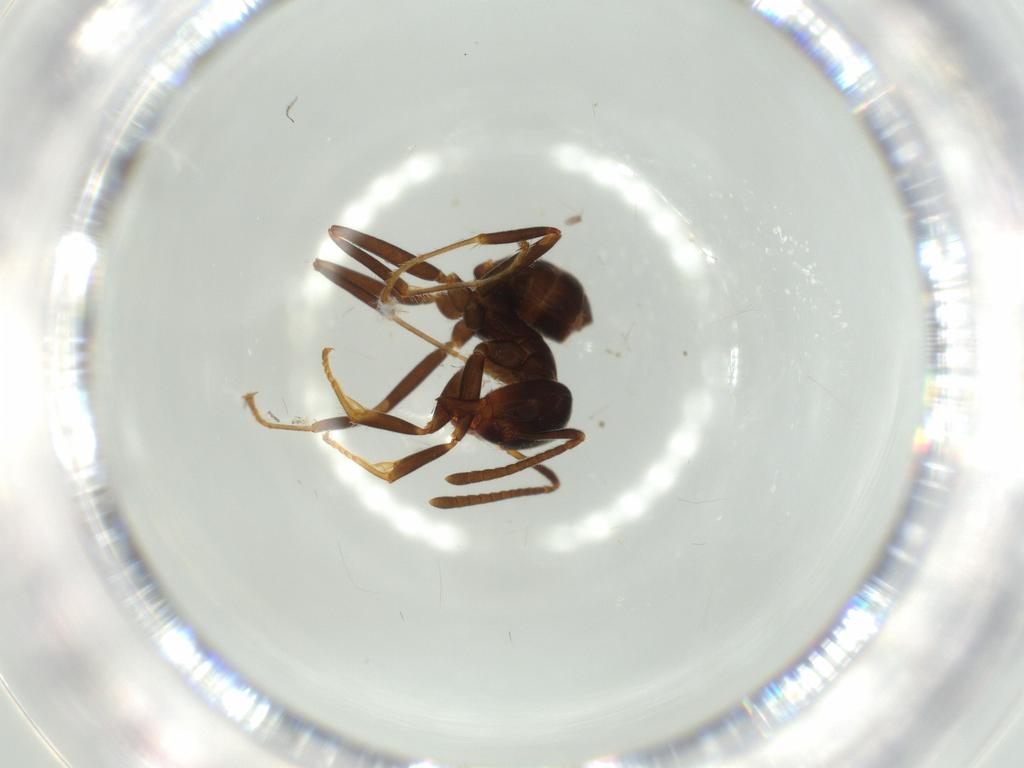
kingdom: Animalia
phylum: Arthropoda
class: Insecta
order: Hymenoptera
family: Formicidae
